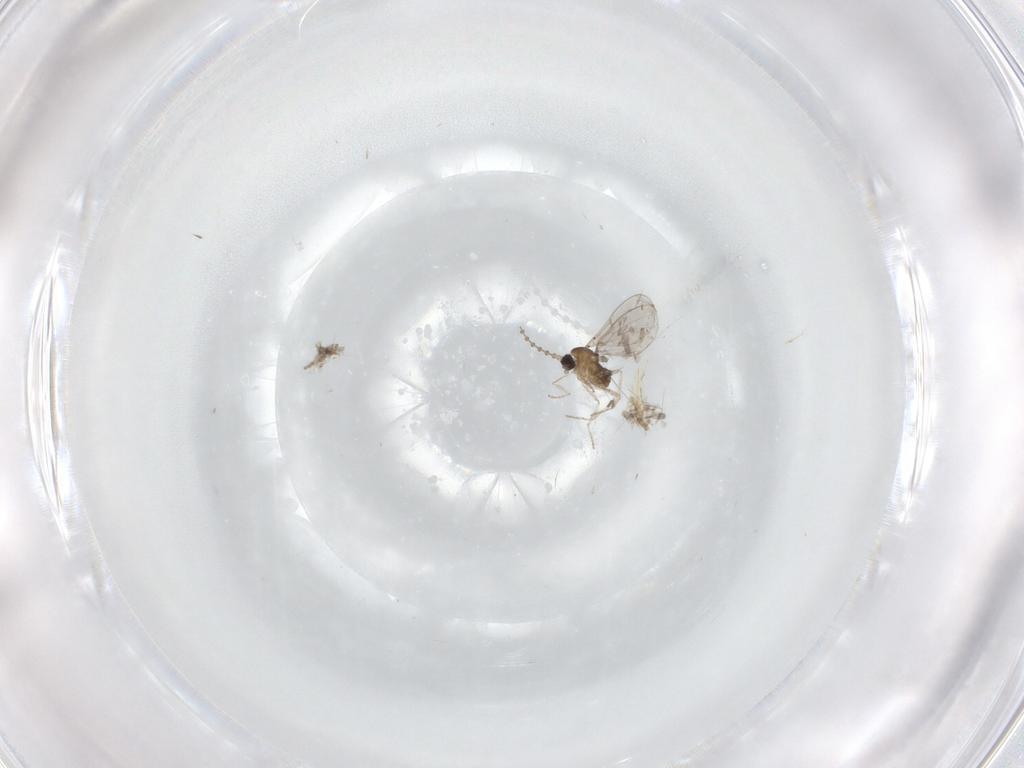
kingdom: Animalia
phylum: Arthropoda
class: Insecta
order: Diptera
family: Cecidomyiidae
